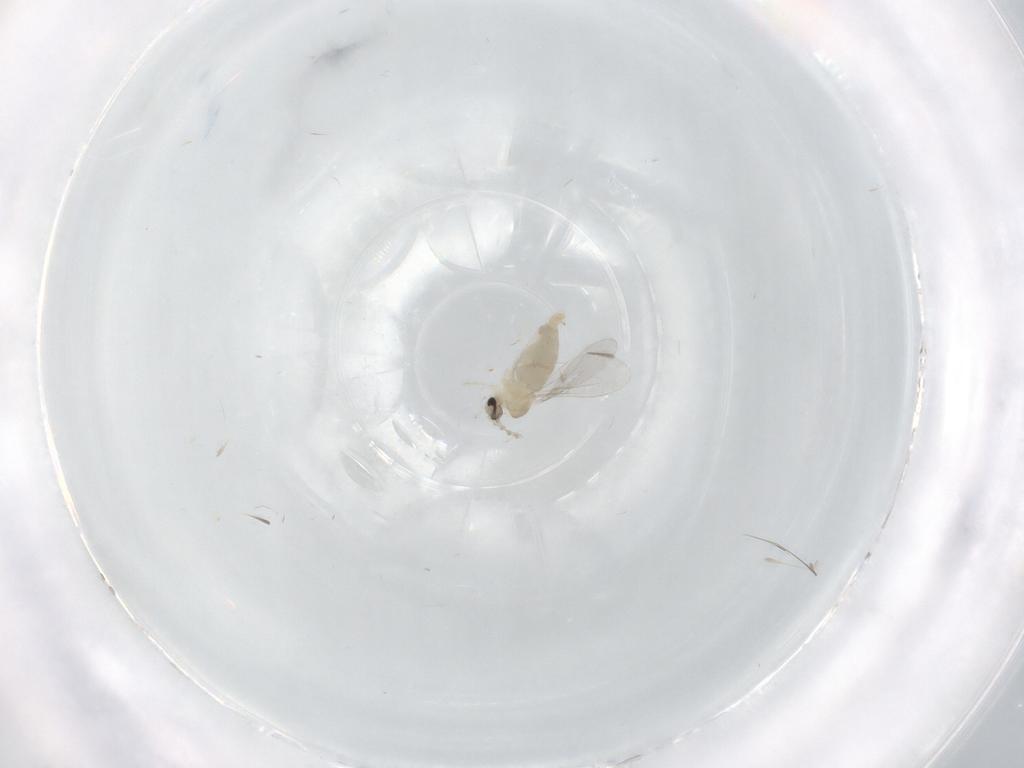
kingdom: Animalia
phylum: Arthropoda
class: Insecta
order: Diptera
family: Cecidomyiidae
